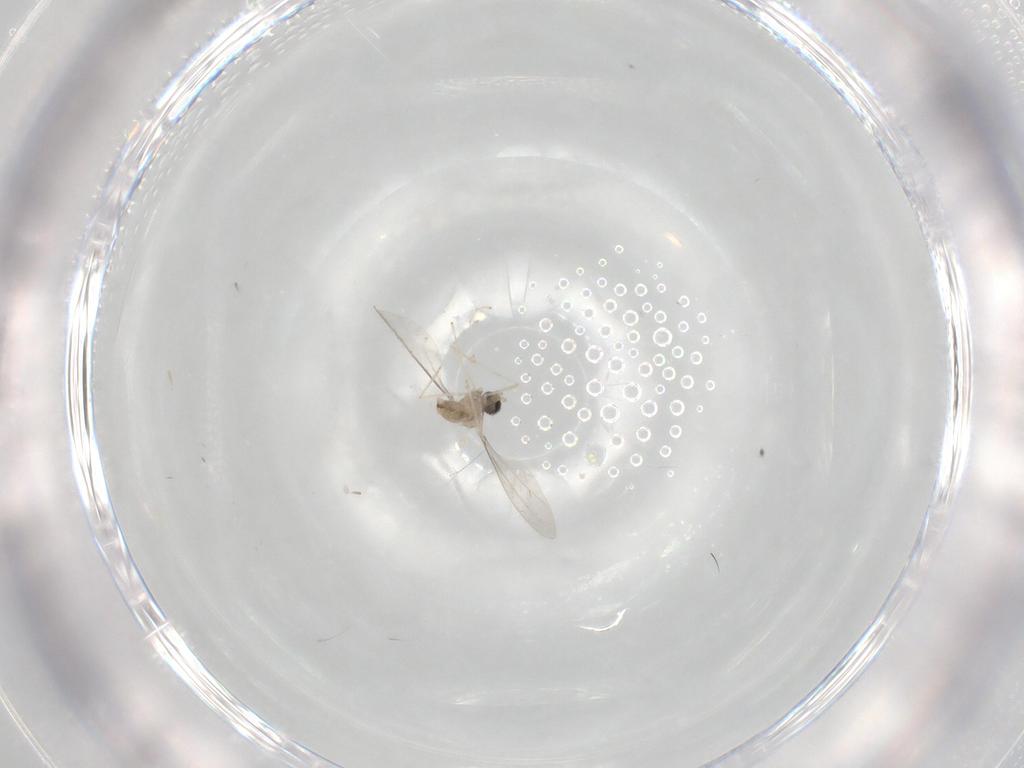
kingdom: Animalia
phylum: Arthropoda
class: Insecta
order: Diptera
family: Cecidomyiidae
